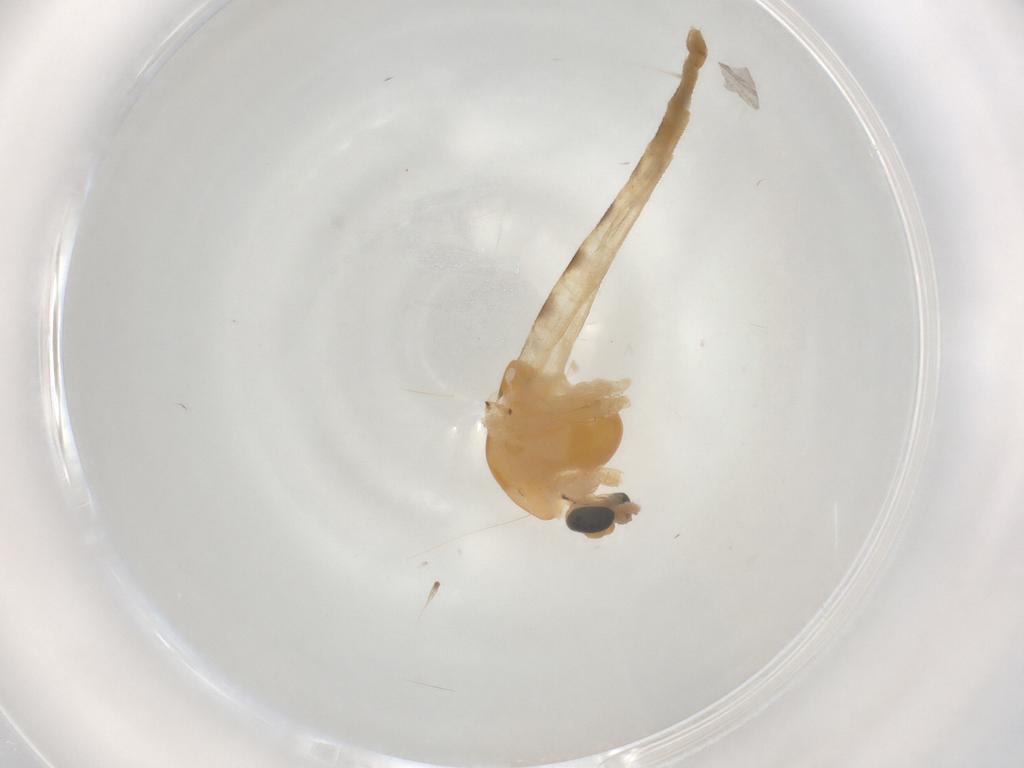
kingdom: Animalia
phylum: Arthropoda
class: Insecta
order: Diptera
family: Chironomidae
